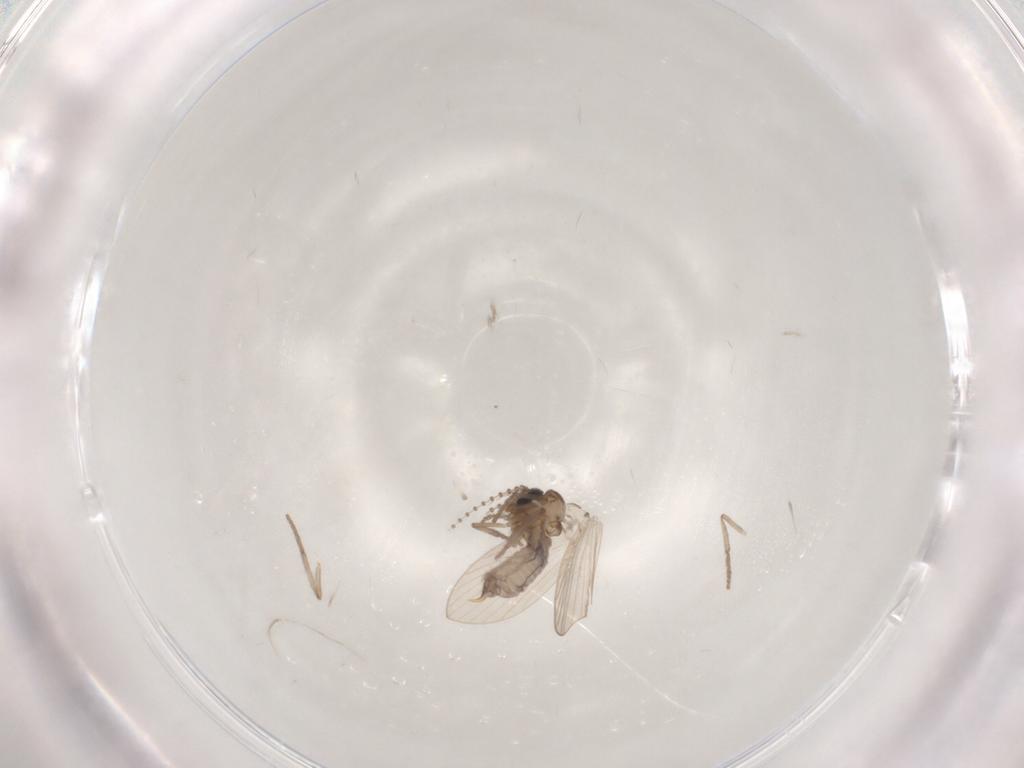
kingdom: Animalia
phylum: Arthropoda
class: Insecta
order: Diptera
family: Psychodidae
